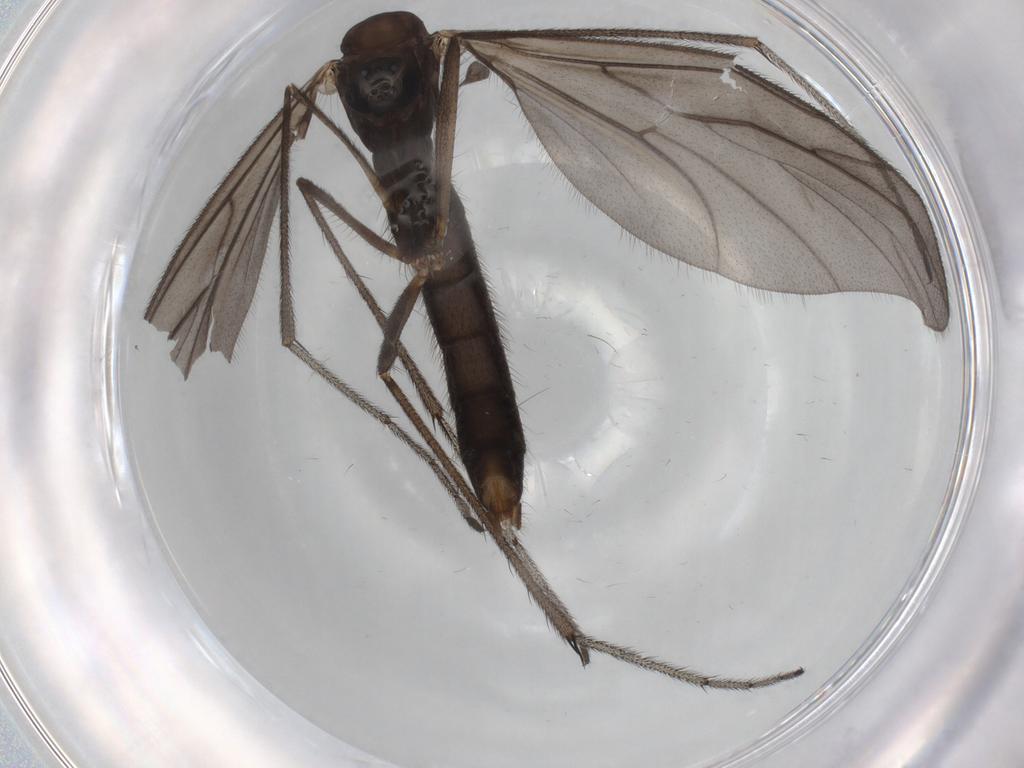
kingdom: Animalia
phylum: Arthropoda
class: Insecta
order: Diptera
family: Ditomyiidae
